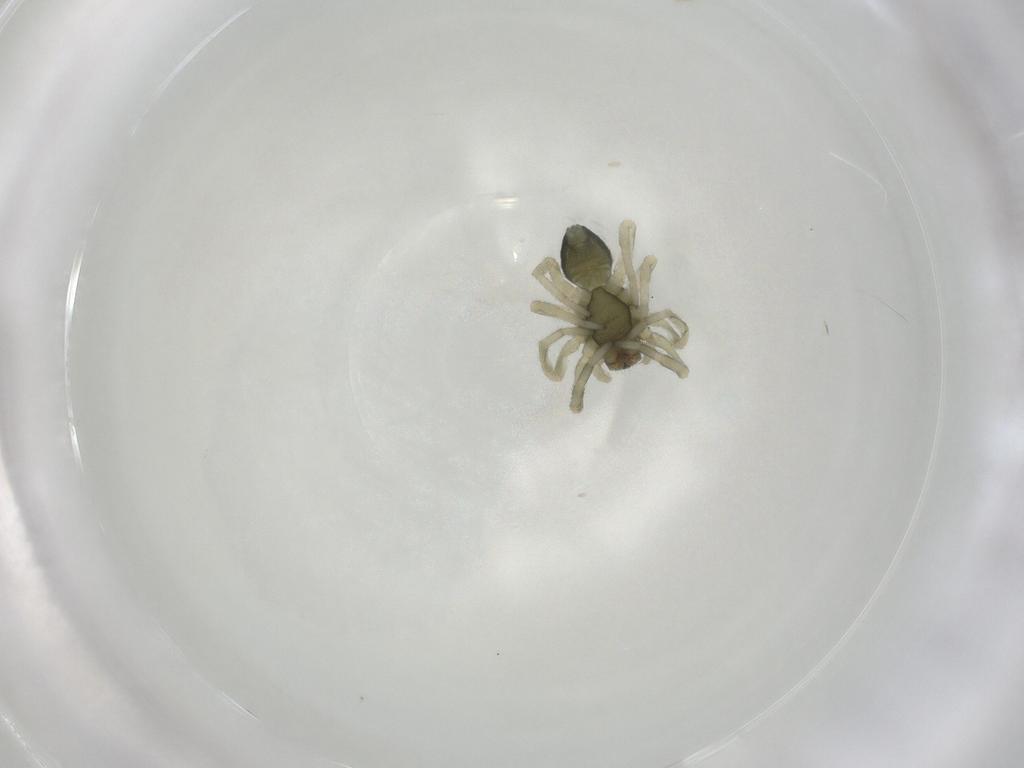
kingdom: Animalia
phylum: Arthropoda
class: Arachnida
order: Araneae
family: Trachelidae
